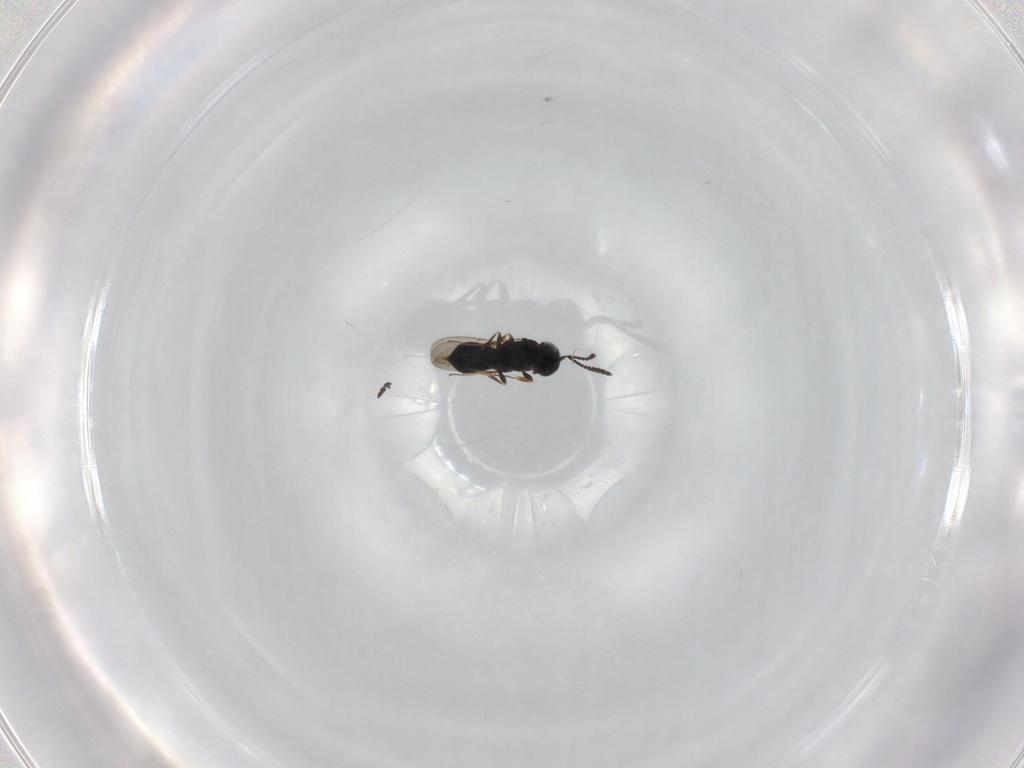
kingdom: Animalia
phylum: Arthropoda
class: Insecta
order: Hymenoptera
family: Scelionidae
